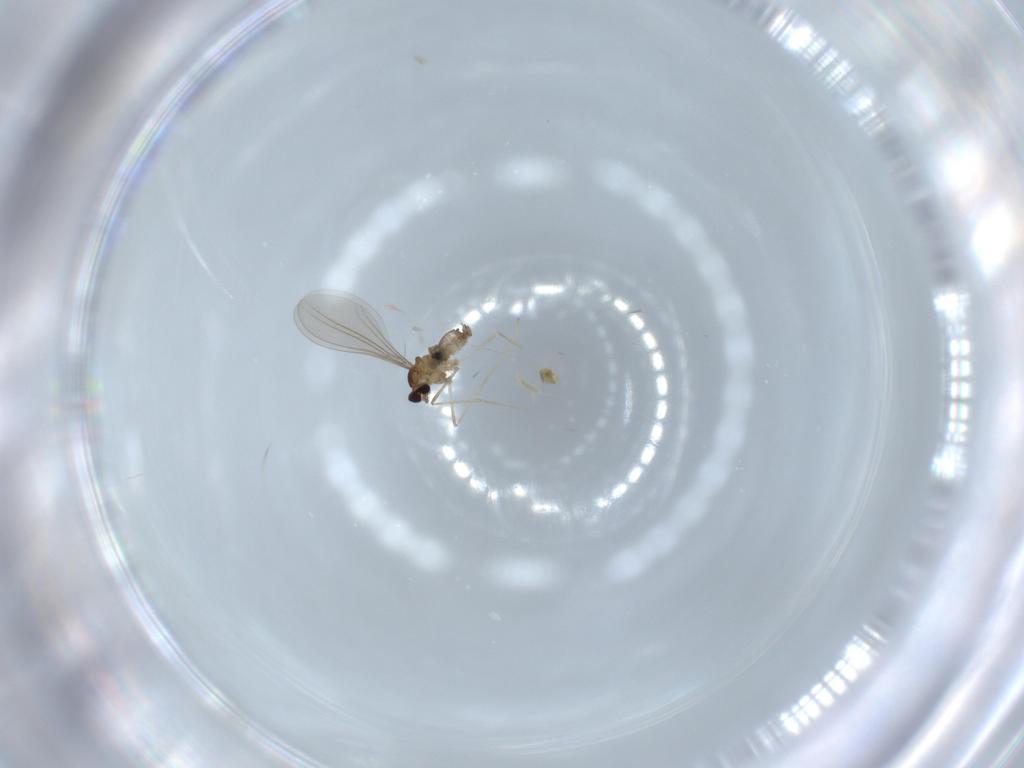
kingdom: Animalia
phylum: Arthropoda
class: Insecta
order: Diptera
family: Cecidomyiidae
